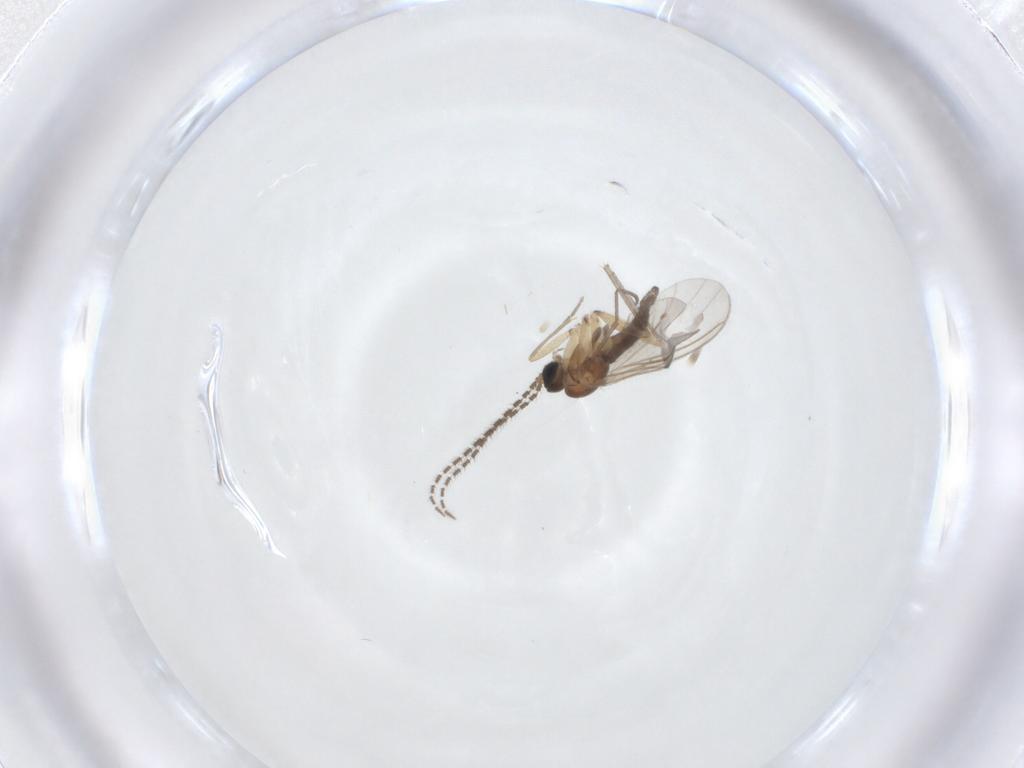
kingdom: Animalia
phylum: Arthropoda
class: Insecta
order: Diptera
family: Sciaridae
